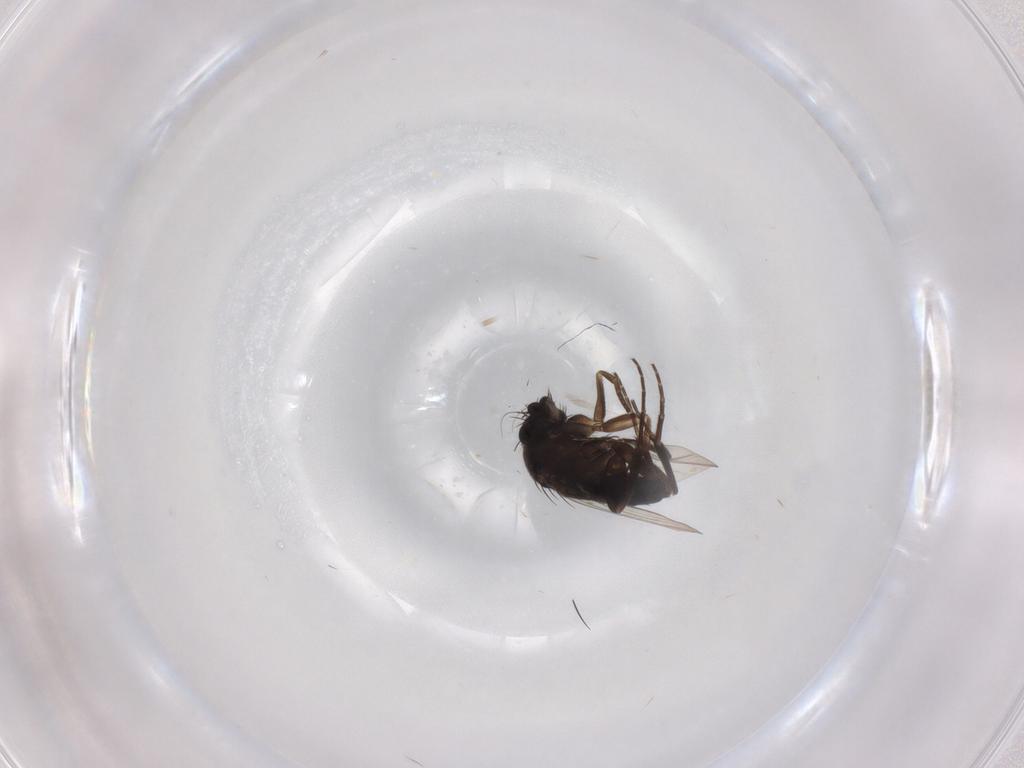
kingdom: Animalia
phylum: Arthropoda
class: Insecta
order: Diptera
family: Phoridae
